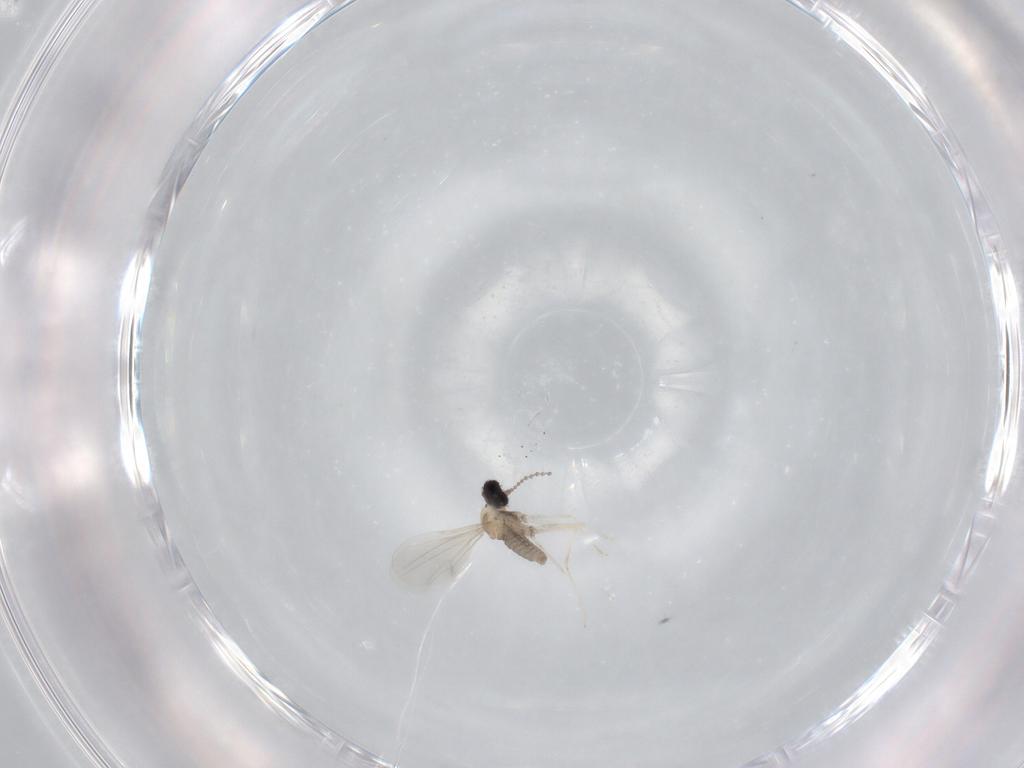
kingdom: Animalia
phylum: Arthropoda
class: Insecta
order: Diptera
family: Cecidomyiidae
